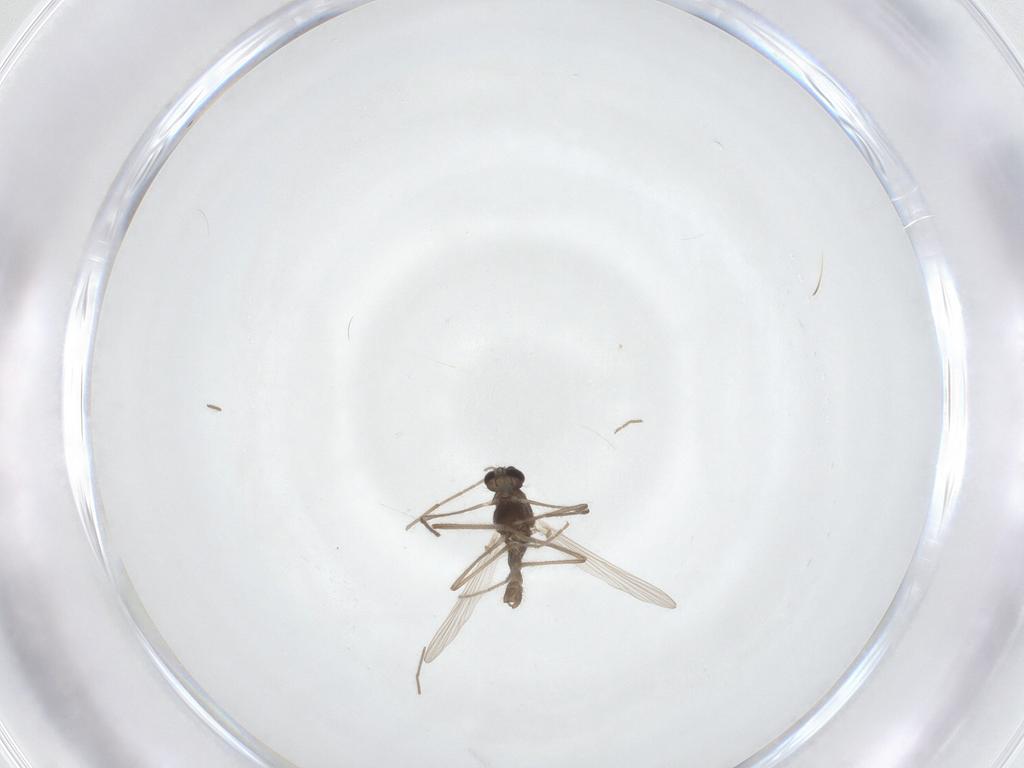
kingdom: Animalia
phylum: Arthropoda
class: Insecta
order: Diptera
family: Chironomidae
